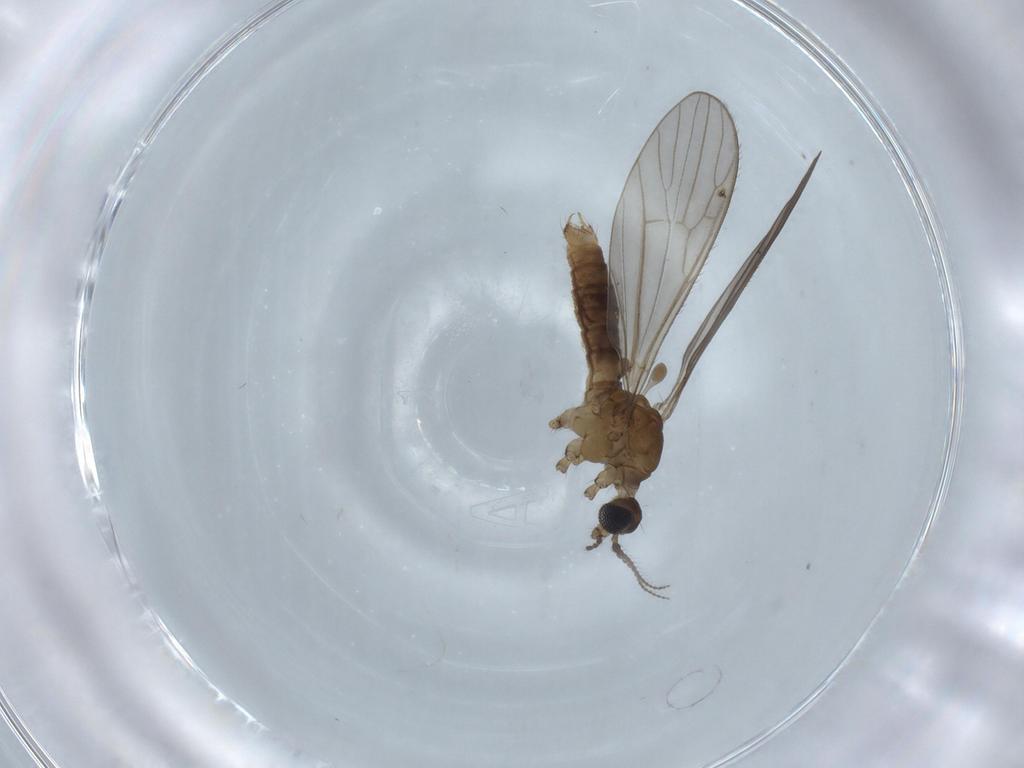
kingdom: Animalia
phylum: Arthropoda
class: Insecta
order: Diptera
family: Limoniidae
